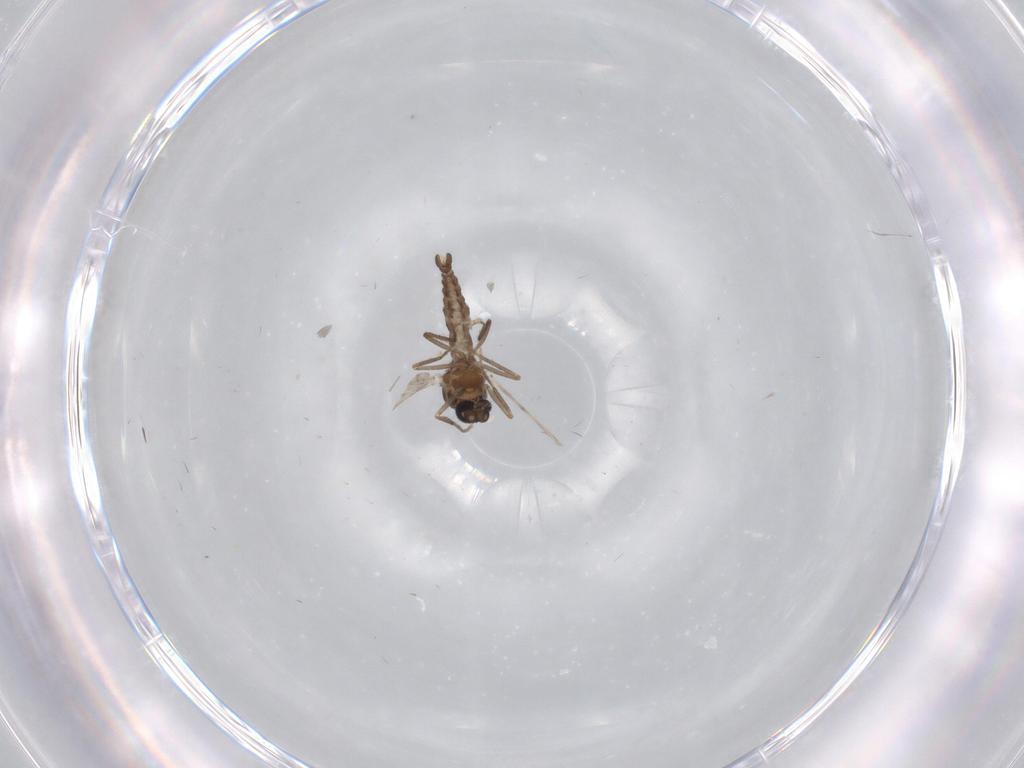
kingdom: Animalia
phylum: Arthropoda
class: Insecta
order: Diptera
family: Ceratopogonidae
